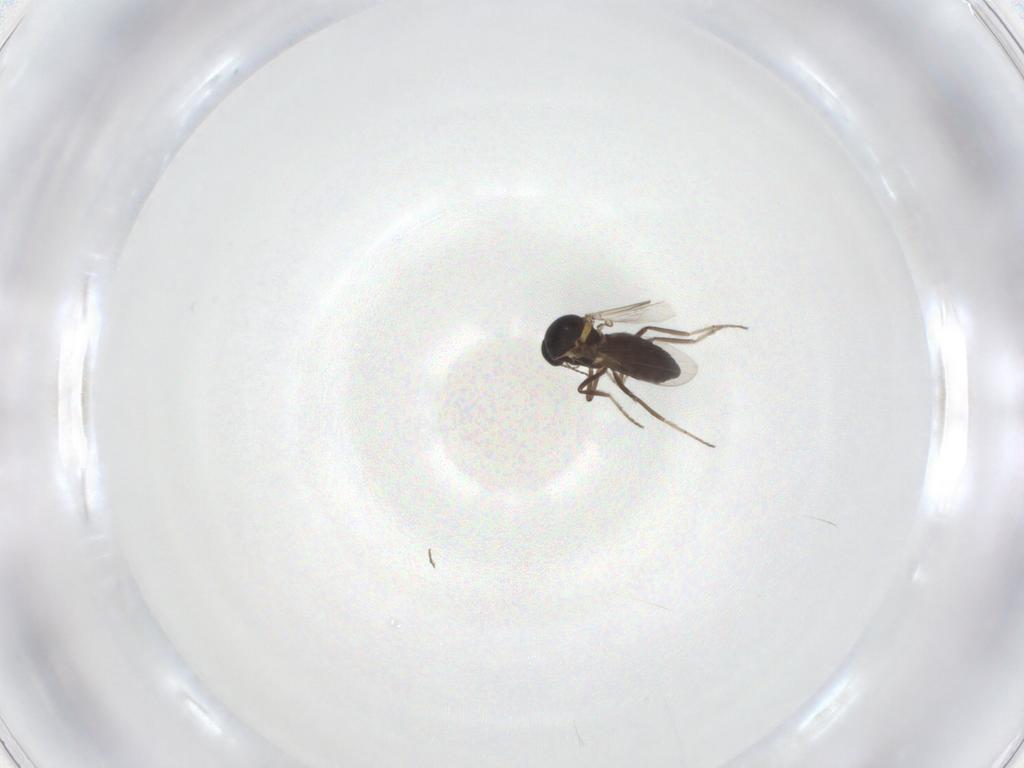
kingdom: Animalia
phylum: Arthropoda
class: Insecta
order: Diptera
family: Ceratopogonidae
